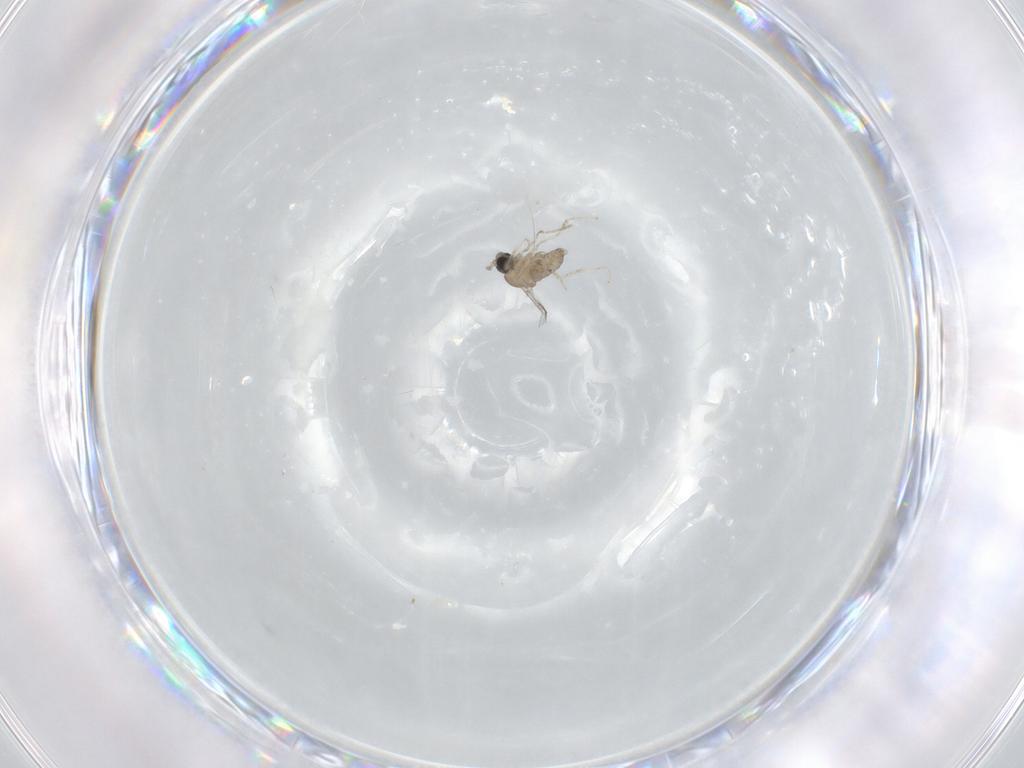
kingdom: Animalia
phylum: Arthropoda
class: Insecta
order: Diptera
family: Cecidomyiidae
